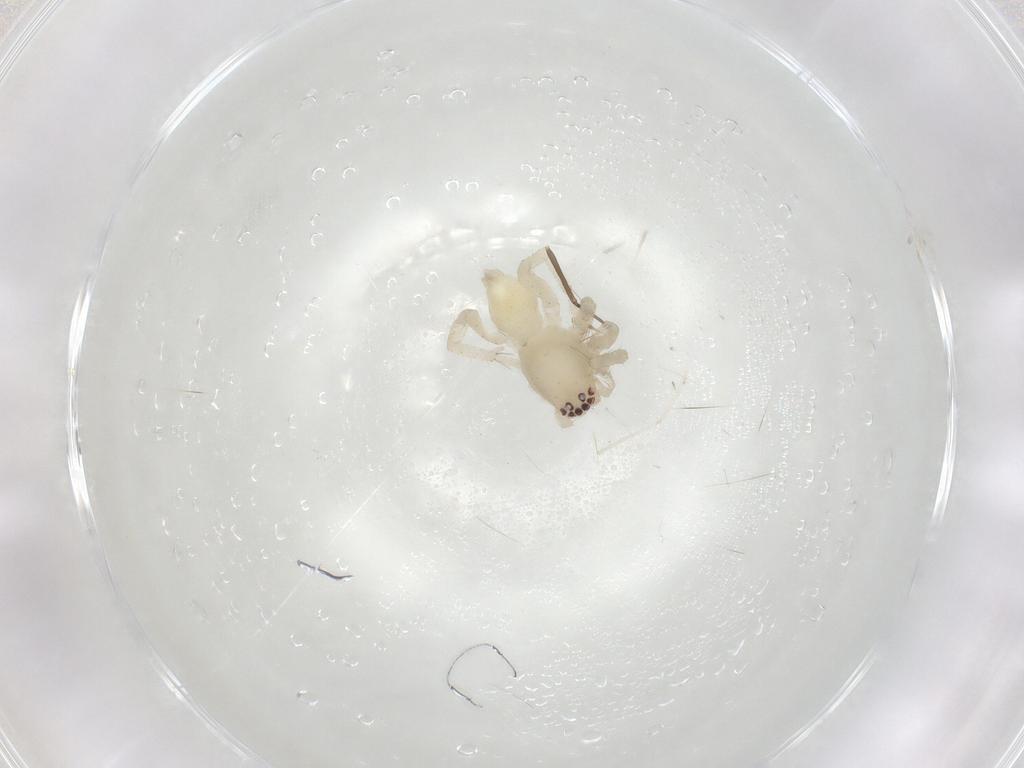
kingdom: Animalia
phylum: Arthropoda
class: Arachnida
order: Araneae
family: Clubionidae
